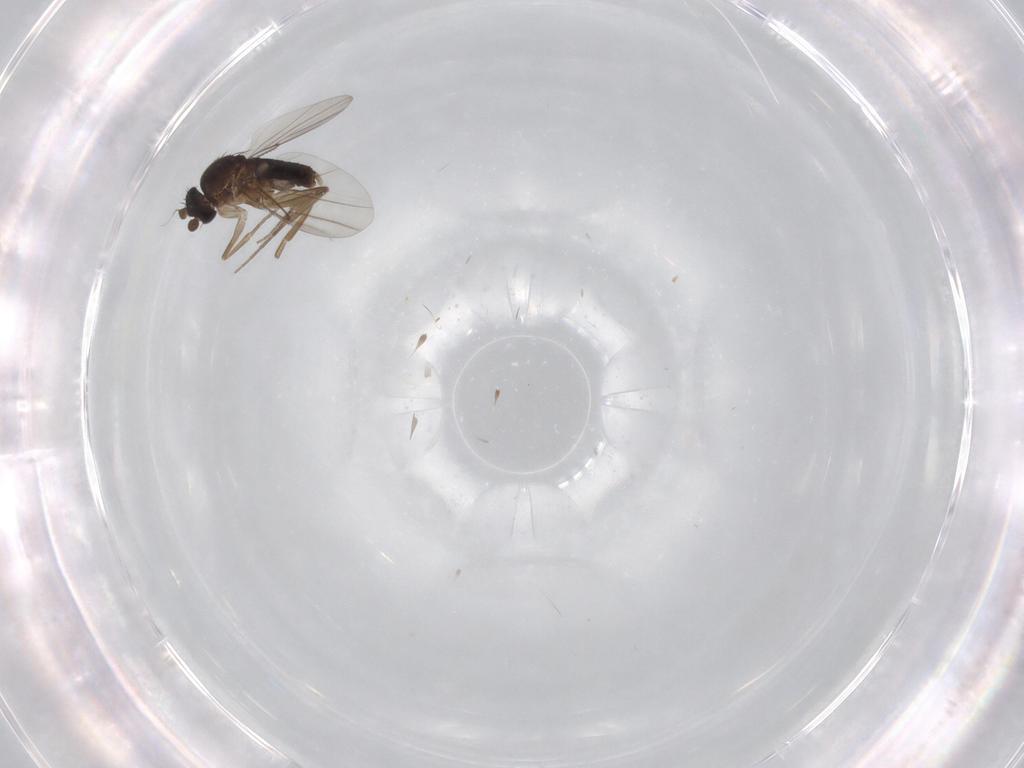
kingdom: Animalia
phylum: Arthropoda
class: Insecta
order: Diptera
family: Phoridae
